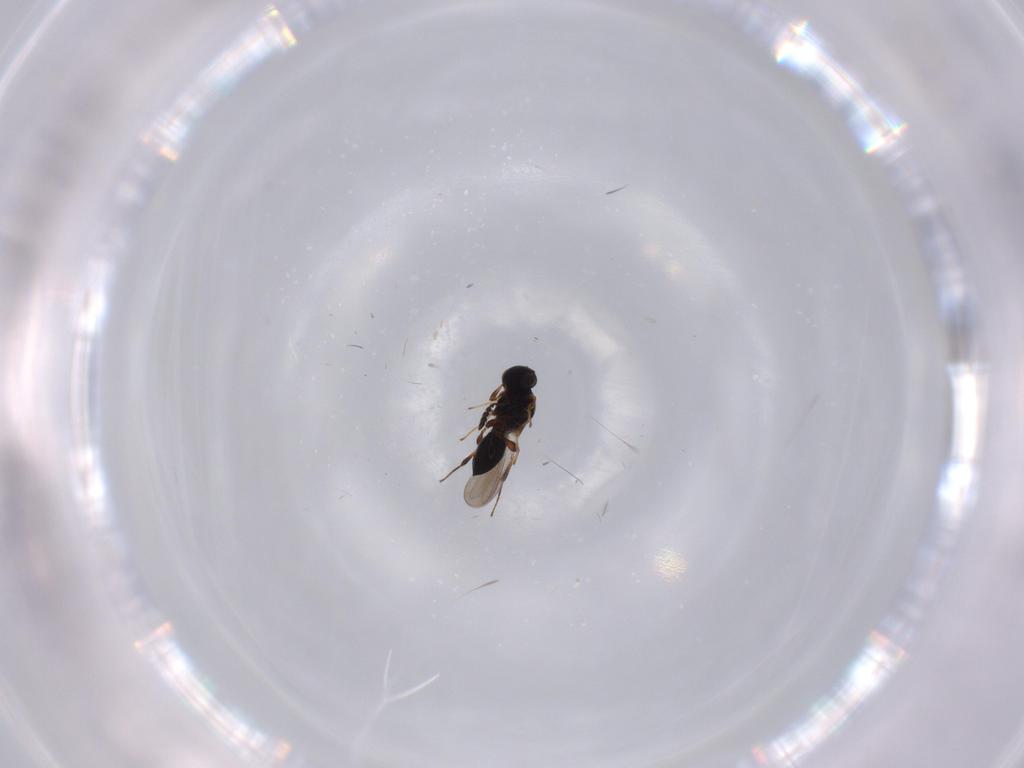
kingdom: Animalia
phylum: Arthropoda
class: Insecta
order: Hymenoptera
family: Platygastridae
